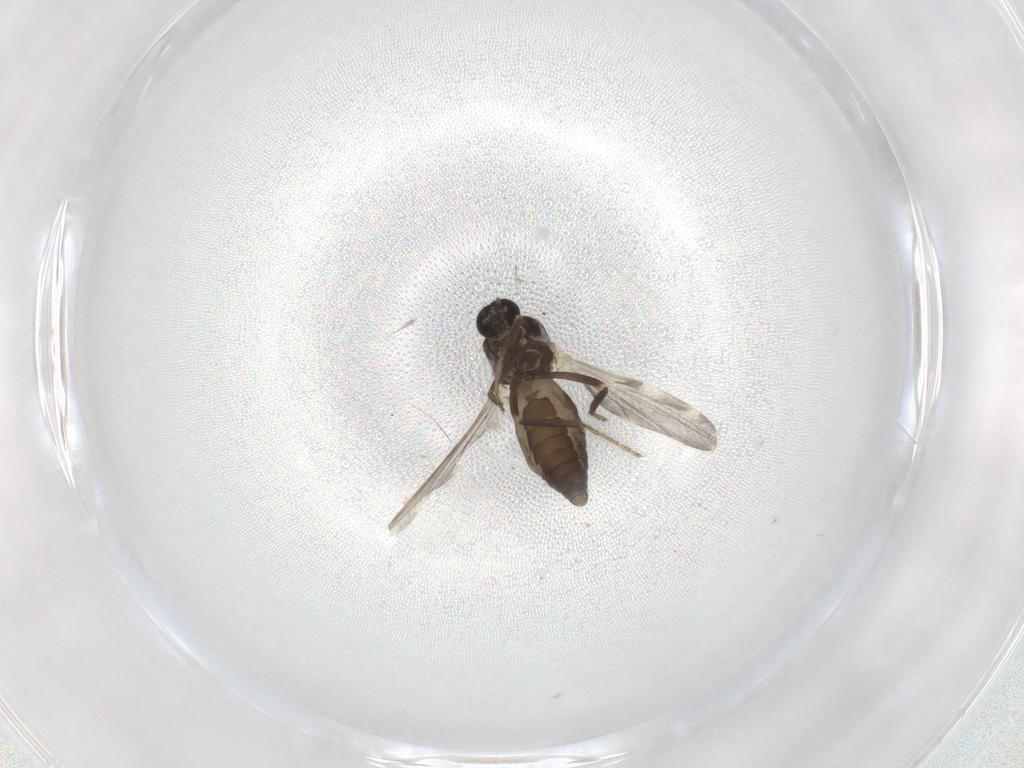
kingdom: Animalia
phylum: Arthropoda
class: Insecta
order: Diptera
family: Ceratopogonidae
